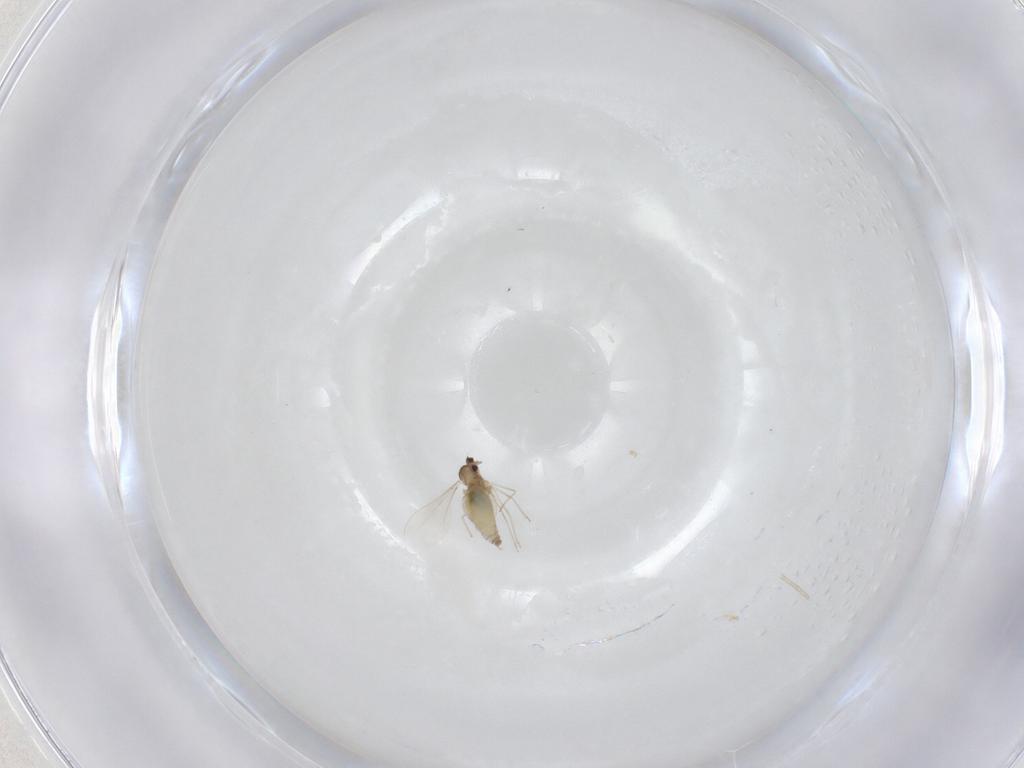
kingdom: Animalia
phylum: Arthropoda
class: Insecta
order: Diptera
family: Cecidomyiidae
